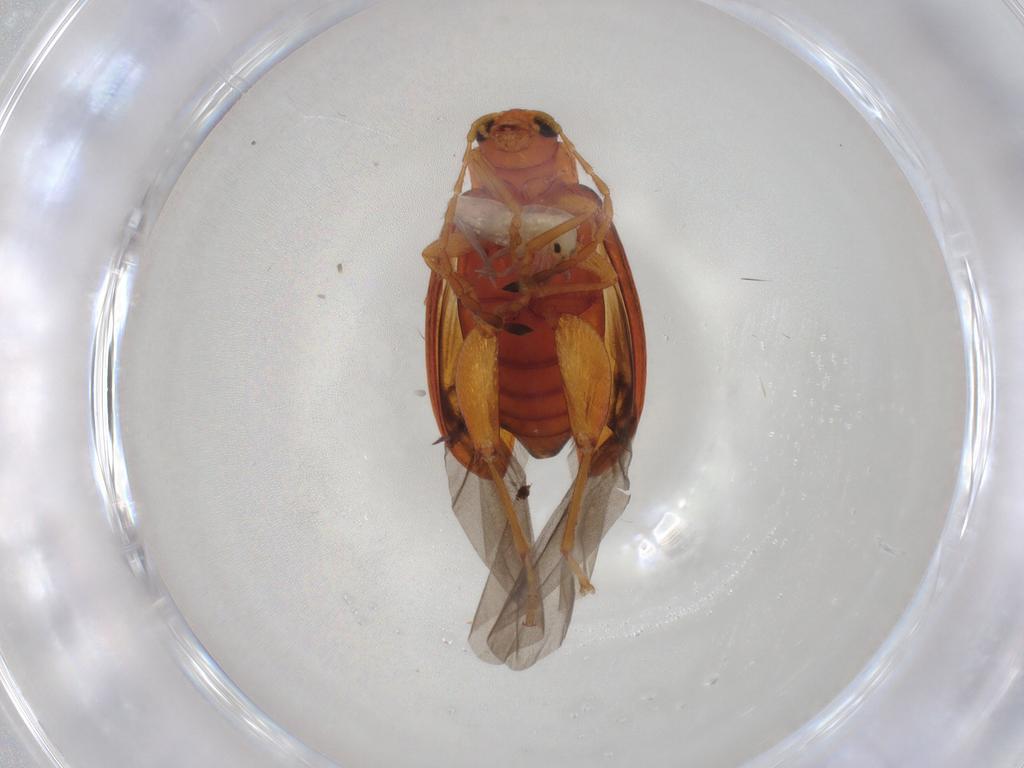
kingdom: Animalia
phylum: Arthropoda
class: Insecta
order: Coleoptera
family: Chrysomelidae
